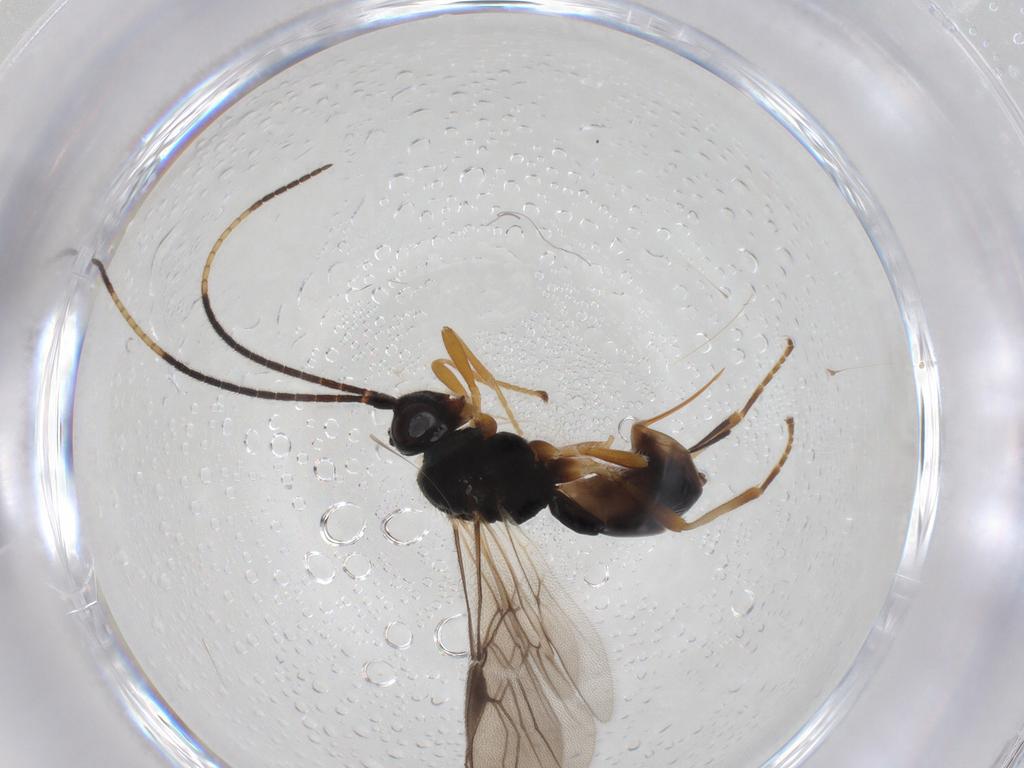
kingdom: Animalia
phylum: Arthropoda
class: Insecta
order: Hymenoptera
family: Braconidae
